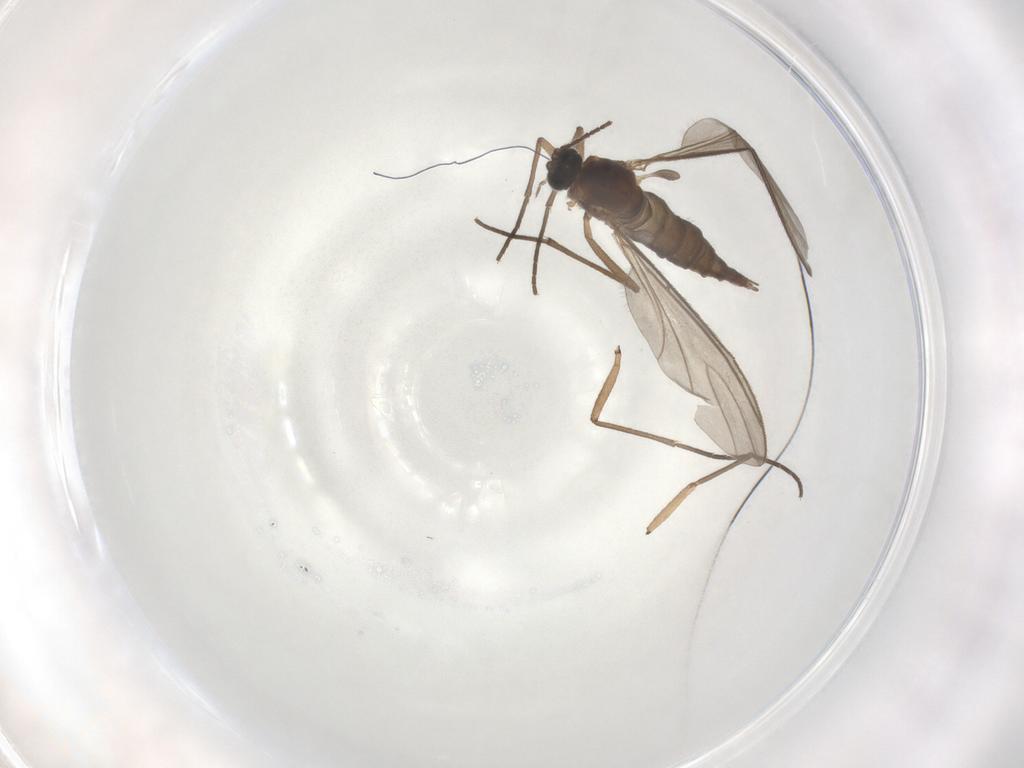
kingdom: Animalia
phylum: Arthropoda
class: Insecta
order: Diptera
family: Sciaridae
